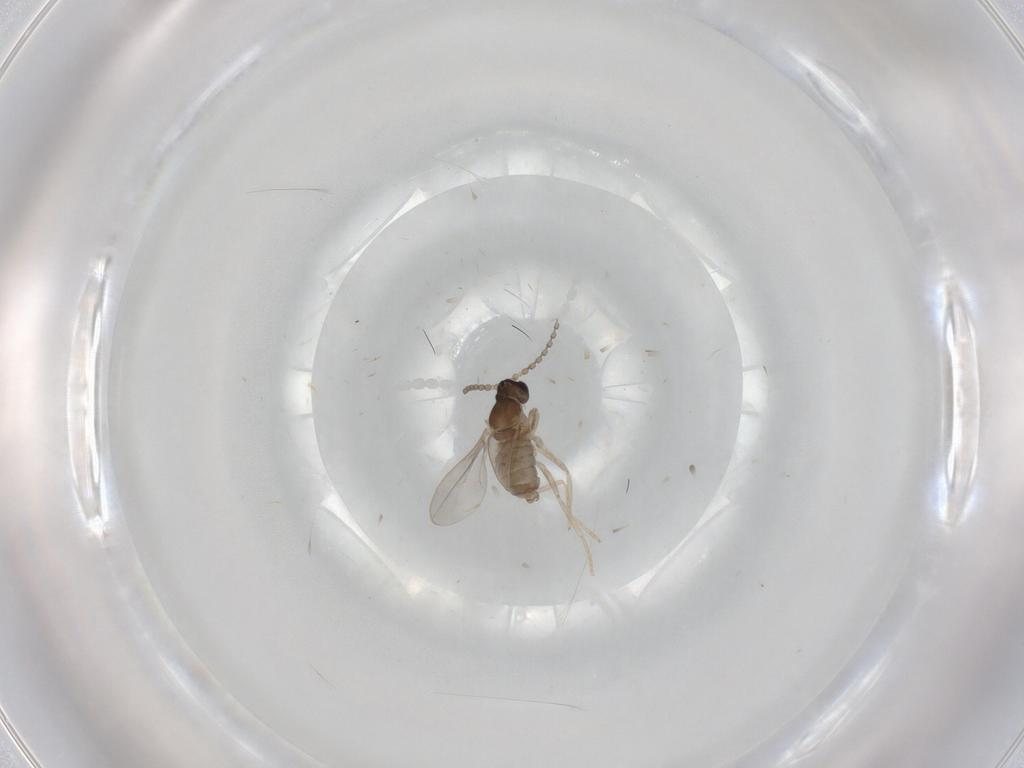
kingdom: Animalia
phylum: Arthropoda
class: Insecta
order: Diptera
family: Cecidomyiidae
